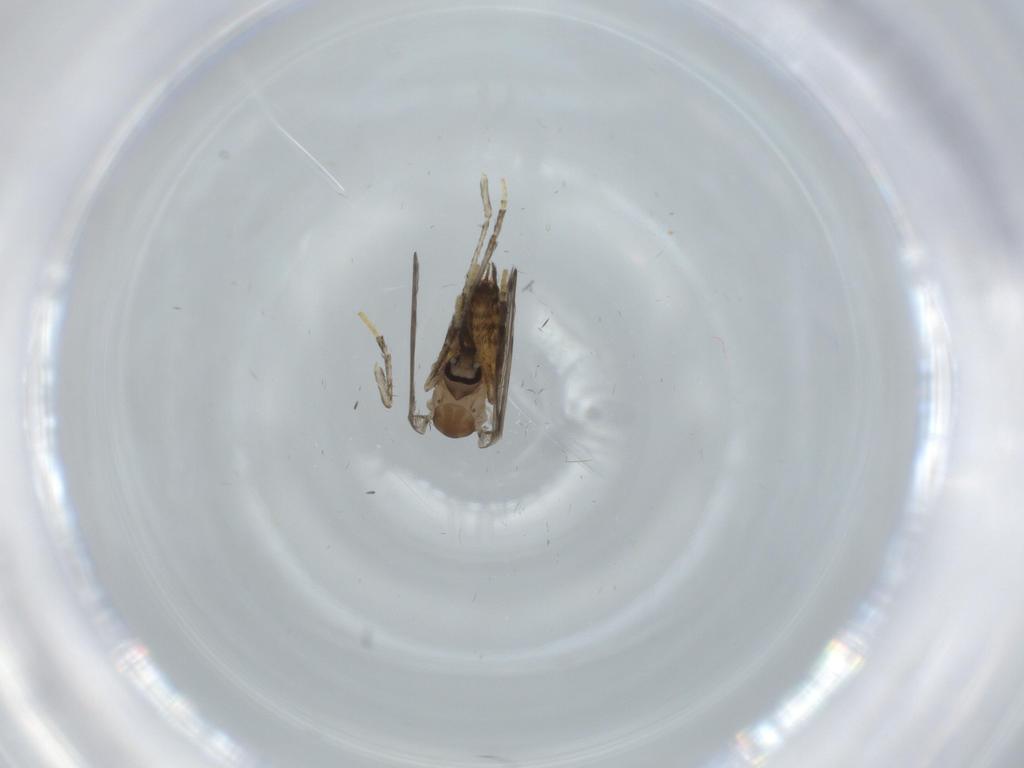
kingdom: Animalia
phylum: Arthropoda
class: Insecta
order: Diptera
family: Psychodidae
